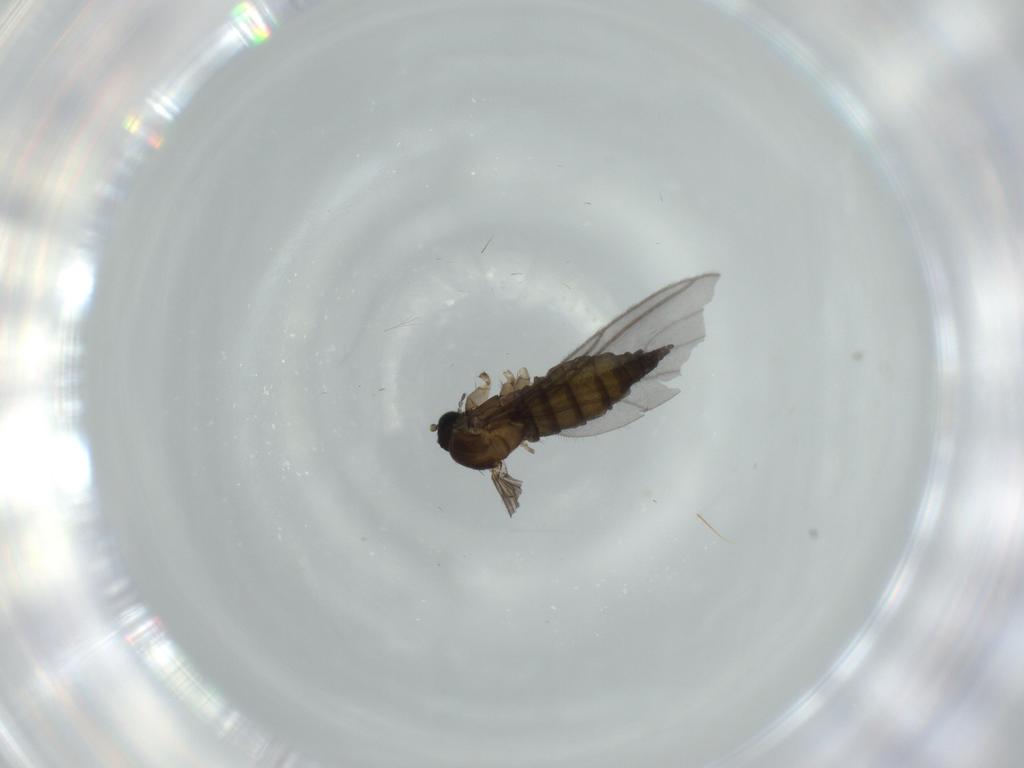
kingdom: Animalia
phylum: Arthropoda
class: Insecta
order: Diptera
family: Sciaridae
